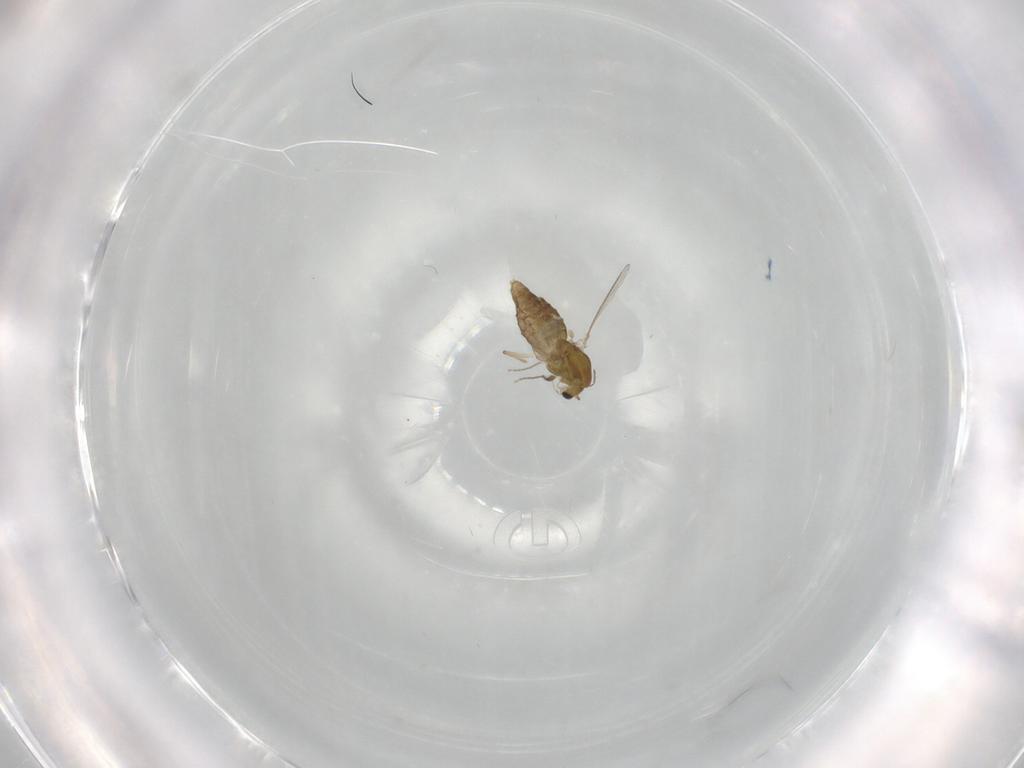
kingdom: Animalia
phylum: Arthropoda
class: Insecta
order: Diptera
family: Chironomidae
